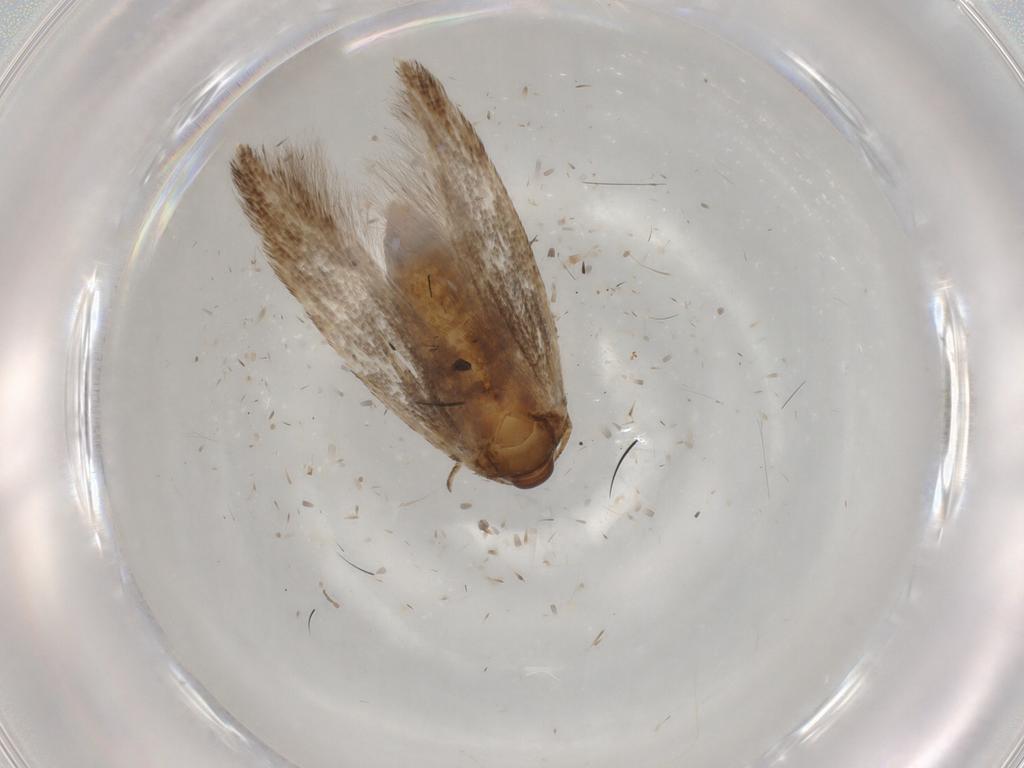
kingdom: Animalia
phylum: Arthropoda
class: Insecta
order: Lepidoptera
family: Cosmopterigidae
